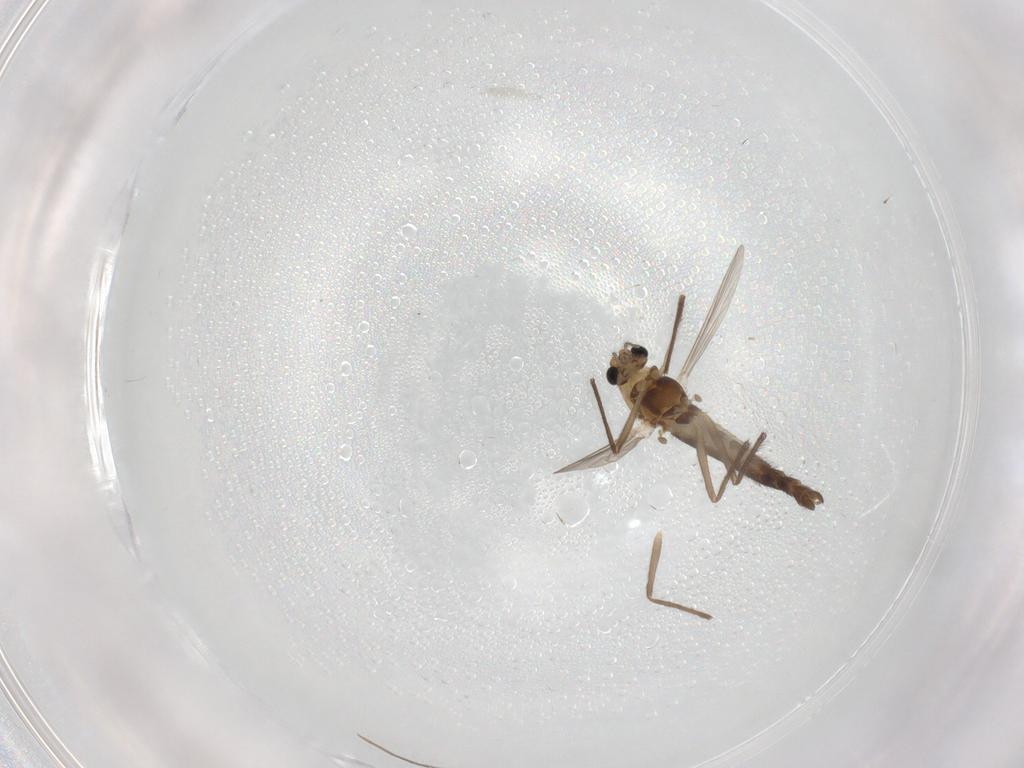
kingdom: Animalia
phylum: Arthropoda
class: Insecta
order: Diptera
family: Chironomidae
